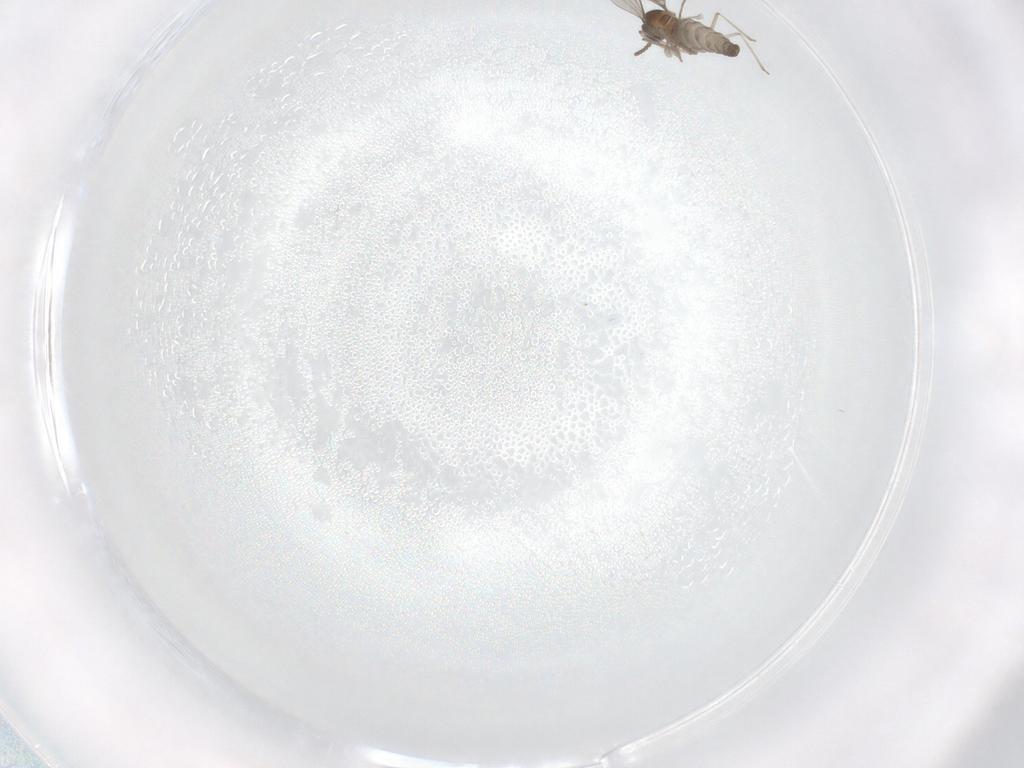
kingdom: Animalia
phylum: Arthropoda
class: Insecta
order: Diptera
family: Cecidomyiidae
